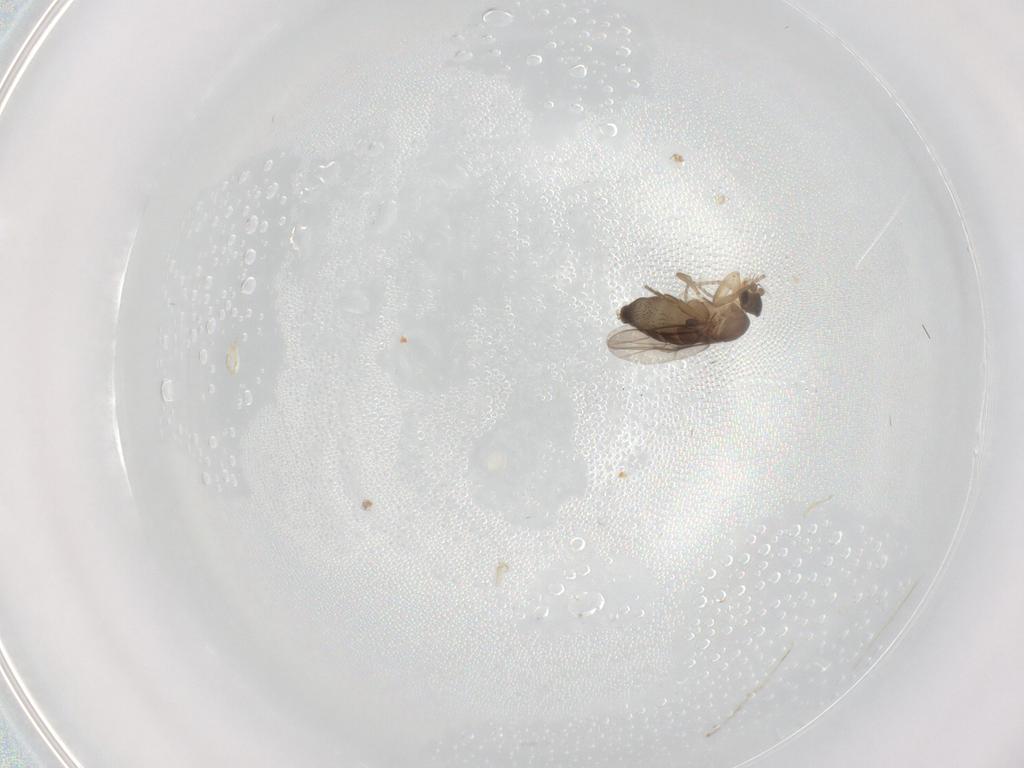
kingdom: Animalia
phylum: Arthropoda
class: Insecta
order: Diptera
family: Phoridae
